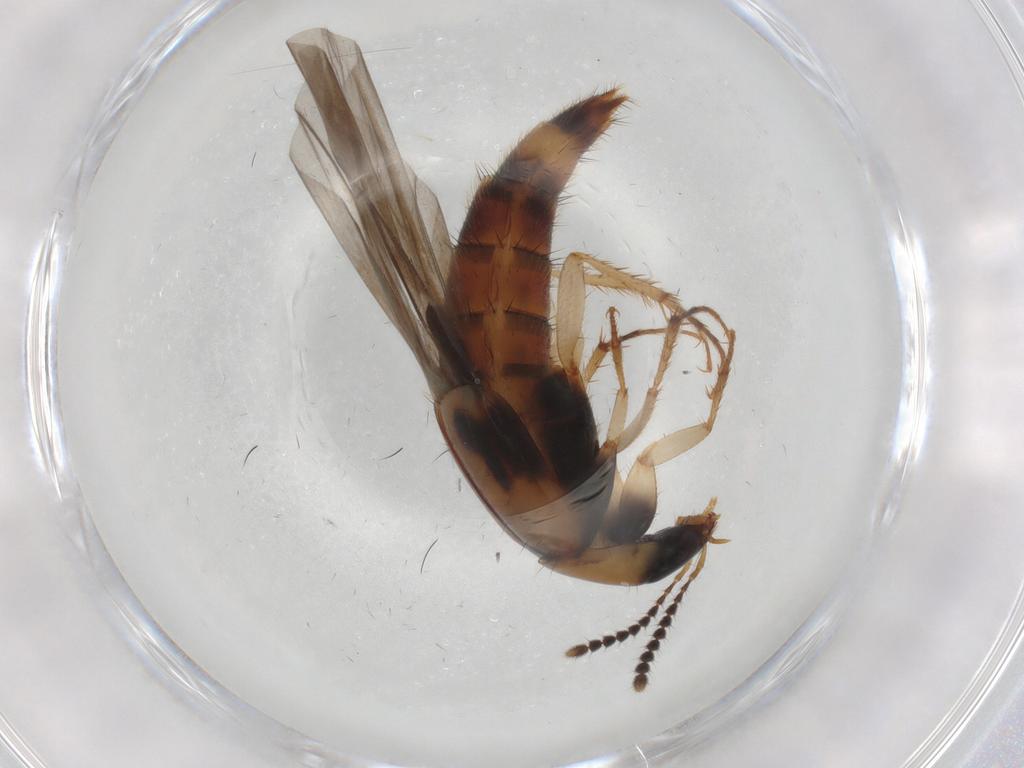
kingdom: Animalia
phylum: Arthropoda
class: Insecta
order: Coleoptera
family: Staphylinidae
